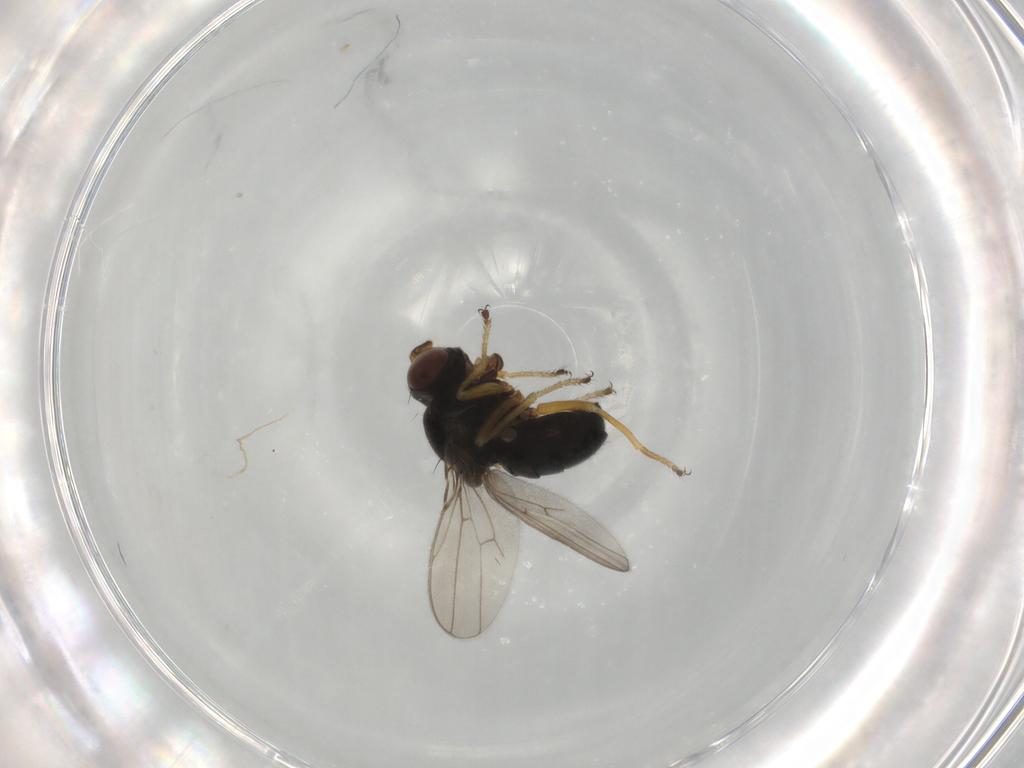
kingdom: Animalia
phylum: Arthropoda
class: Insecta
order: Diptera
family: Ephydridae
